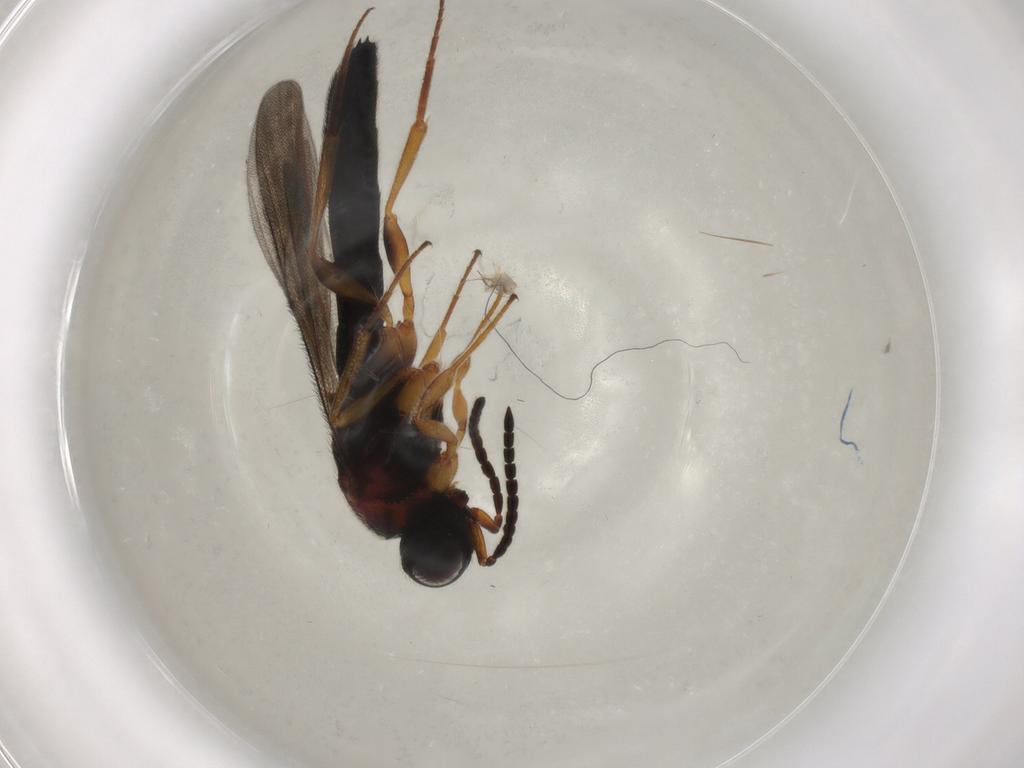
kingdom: Animalia
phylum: Arthropoda
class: Insecta
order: Hymenoptera
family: Scelionidae
